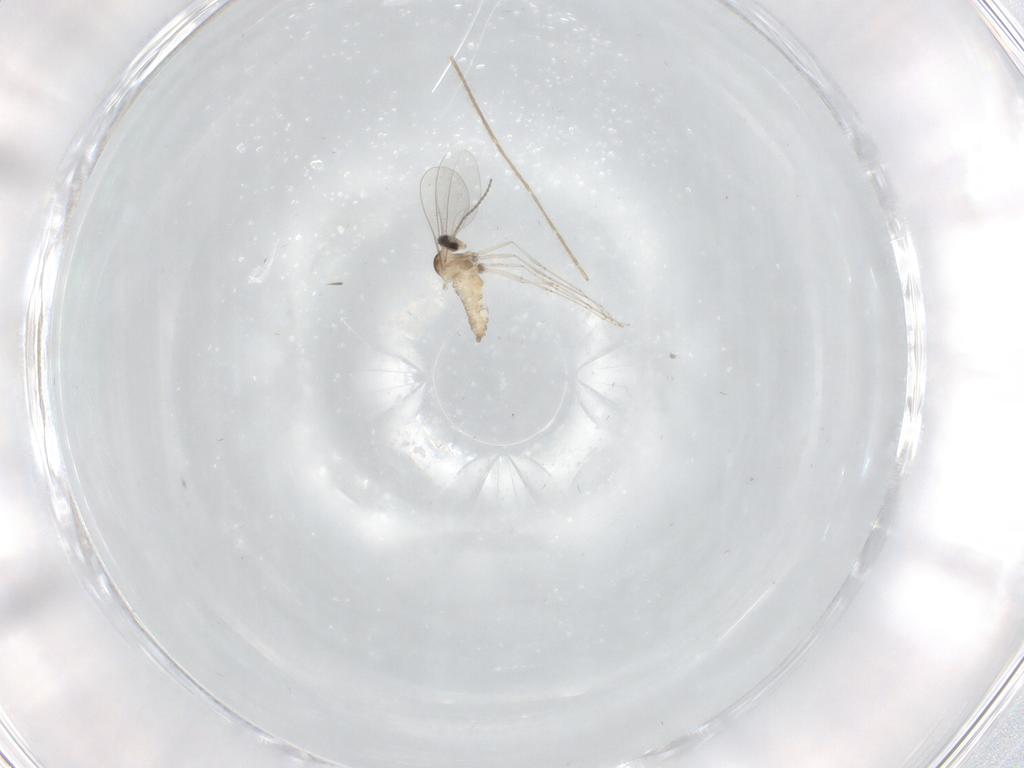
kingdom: Animalia
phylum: Arthropoda
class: Insecta
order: Diptera
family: Cecidomyiidae
